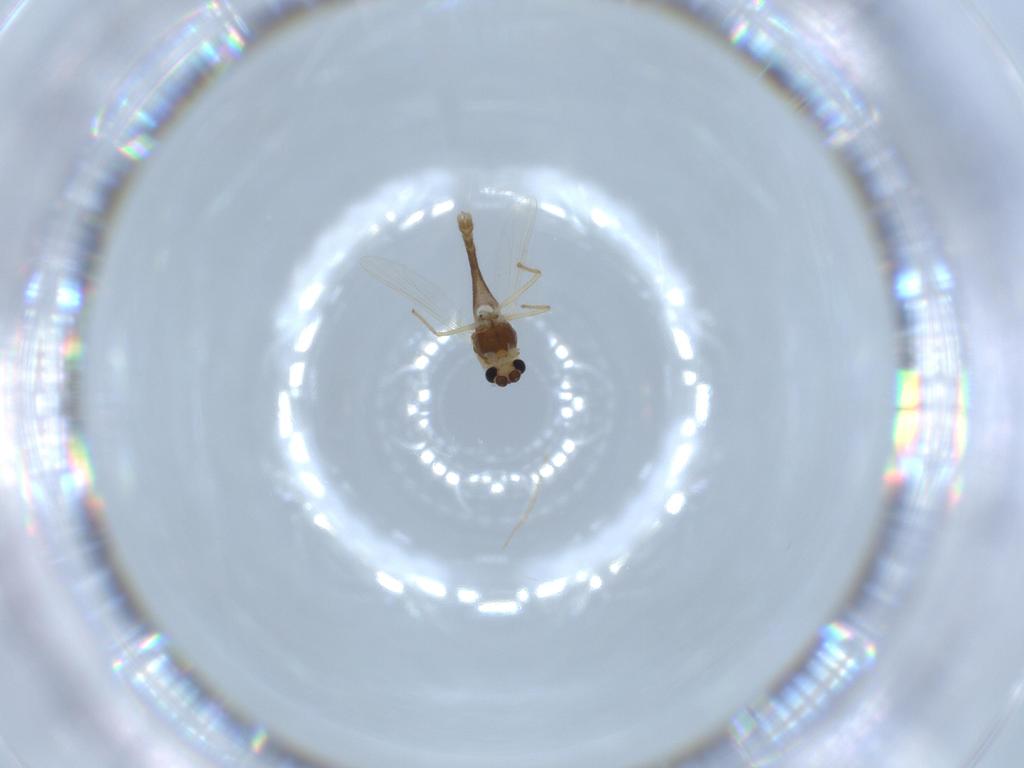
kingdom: Animalia
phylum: Arthropoda
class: Insecta
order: Diptera
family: Chironomidae
